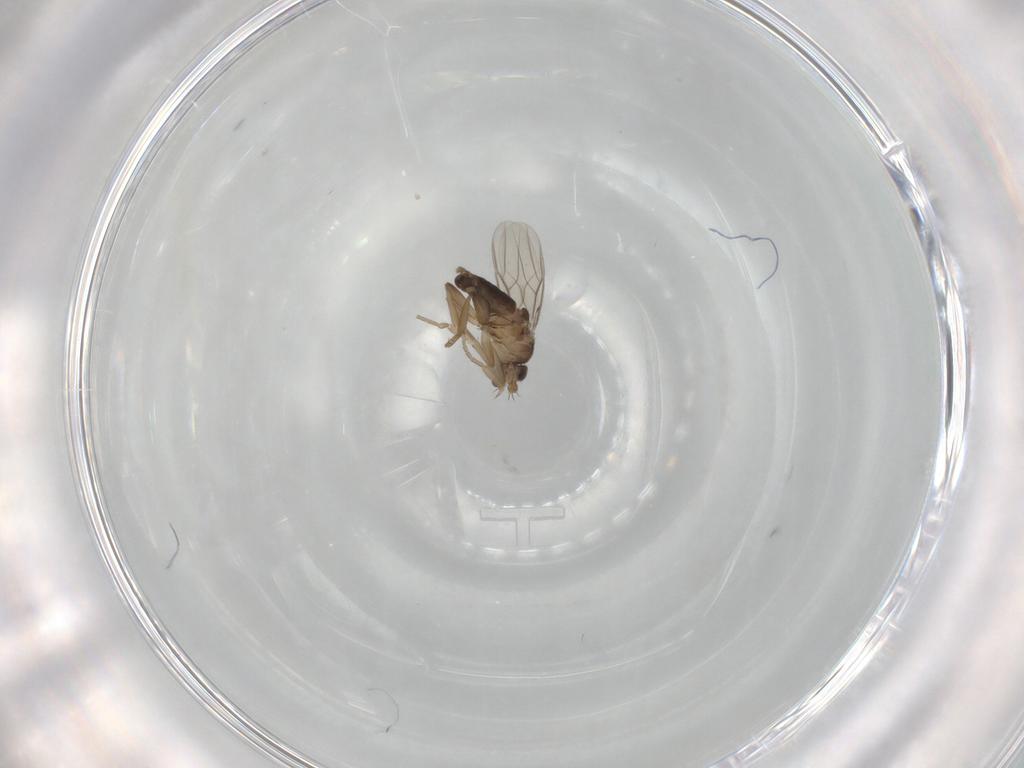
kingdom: Animalia
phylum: Arthropoda
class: Insecta
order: Diptera
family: Phoridae
